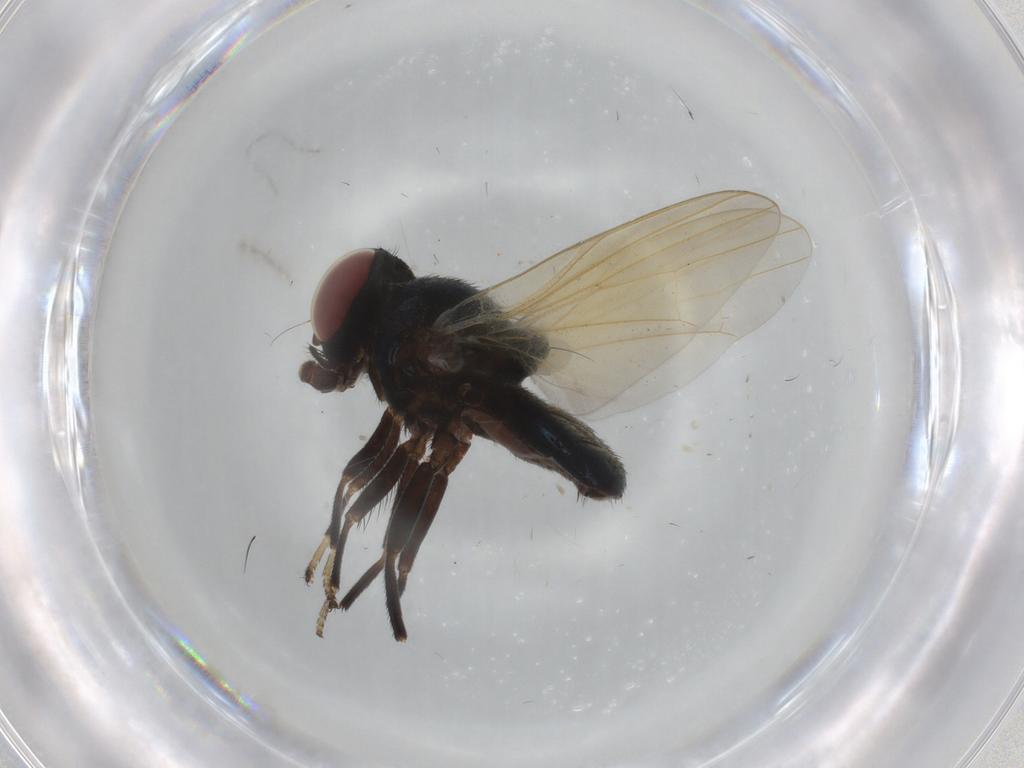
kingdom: Animalia
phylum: Arthropoda
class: Insecta
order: Diptera
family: Lonchaeidae
